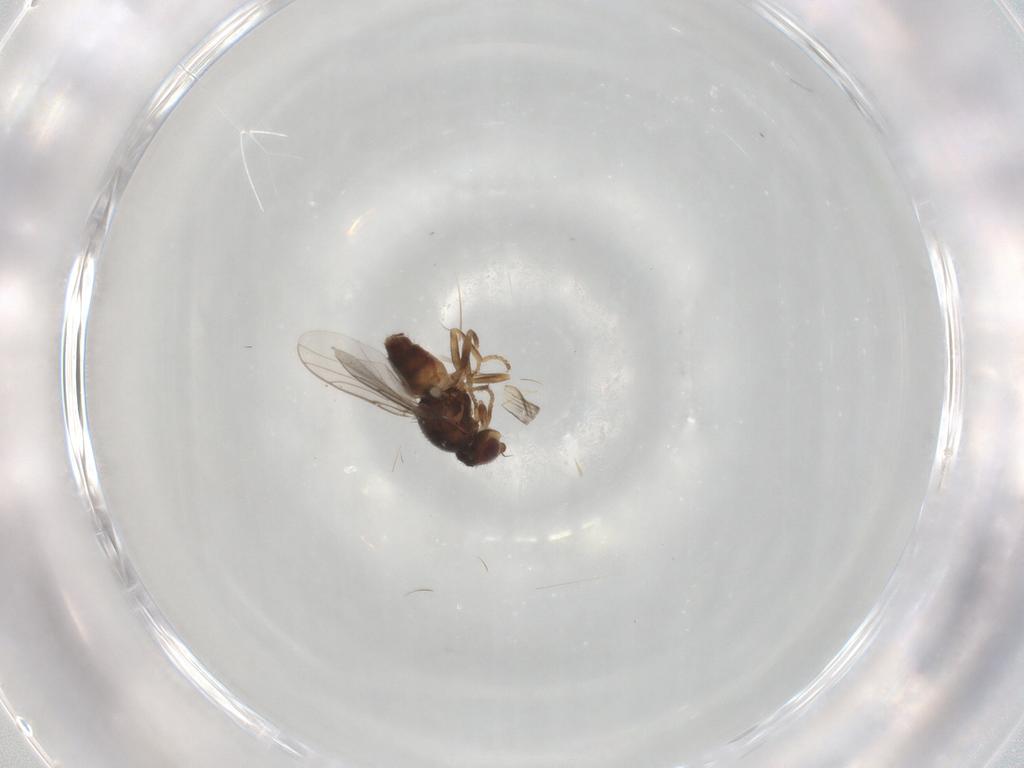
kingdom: Animalia
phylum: Arthropoda
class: Insecta
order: Diptera
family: Chloropidae
